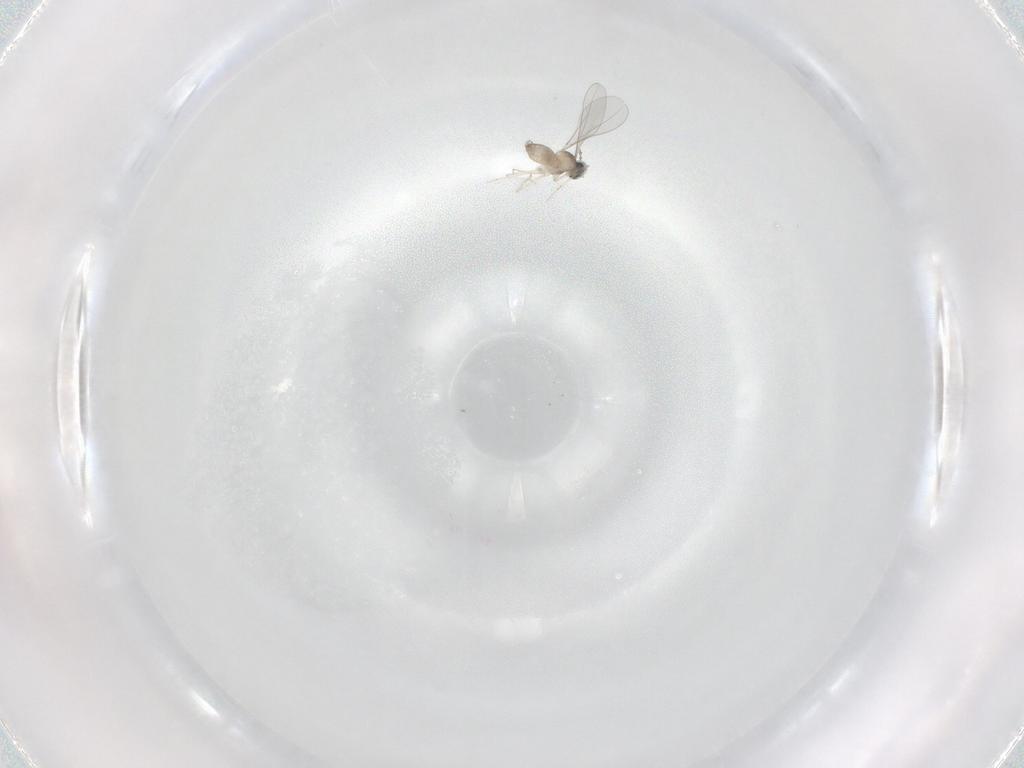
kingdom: Animalia
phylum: Arthropoda
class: Insecta
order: Diptera
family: Cecidomyiidae
